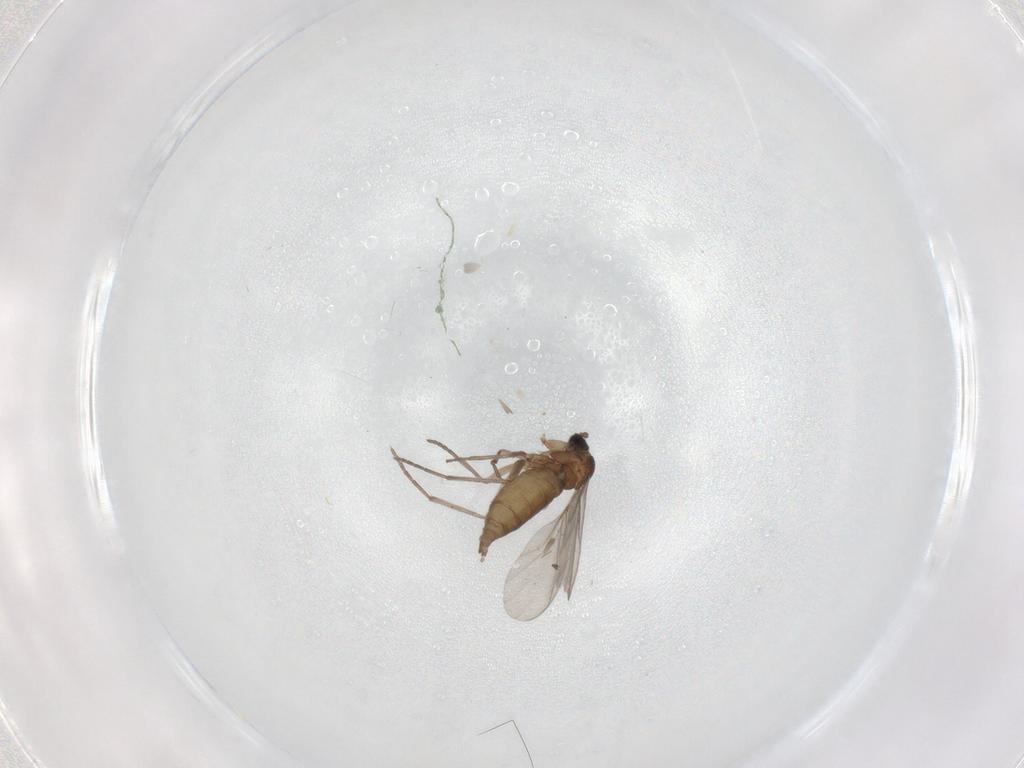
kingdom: Animalia
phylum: Arthropoda
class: Insecta
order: Diptera
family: Sciaridae
